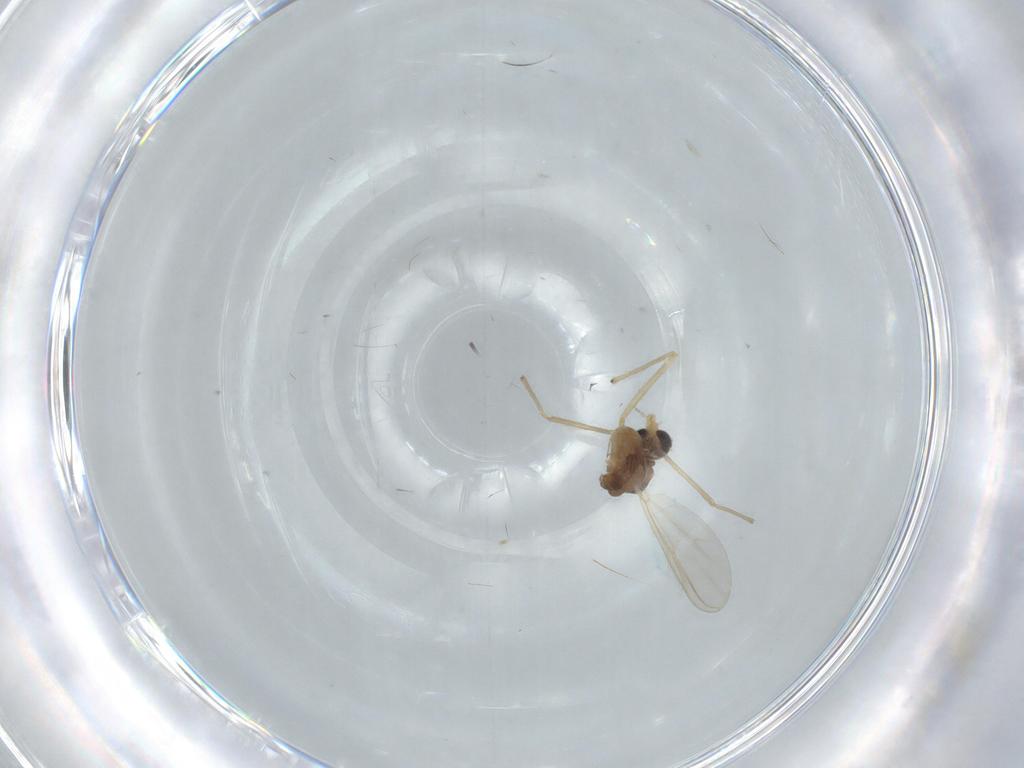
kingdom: Animalia
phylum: Arthropoda
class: Insecta
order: Diptera
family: Chironomidae
